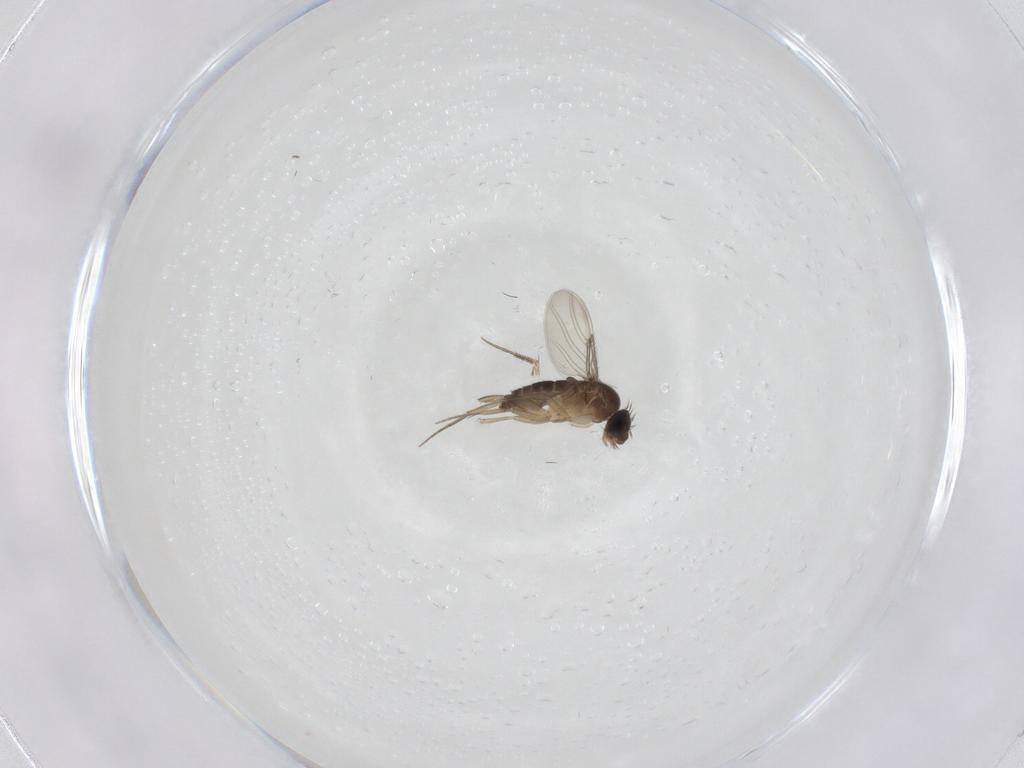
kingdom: Animalia
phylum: Arthropoda
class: Insecta
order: Diptera
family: Phoridae
